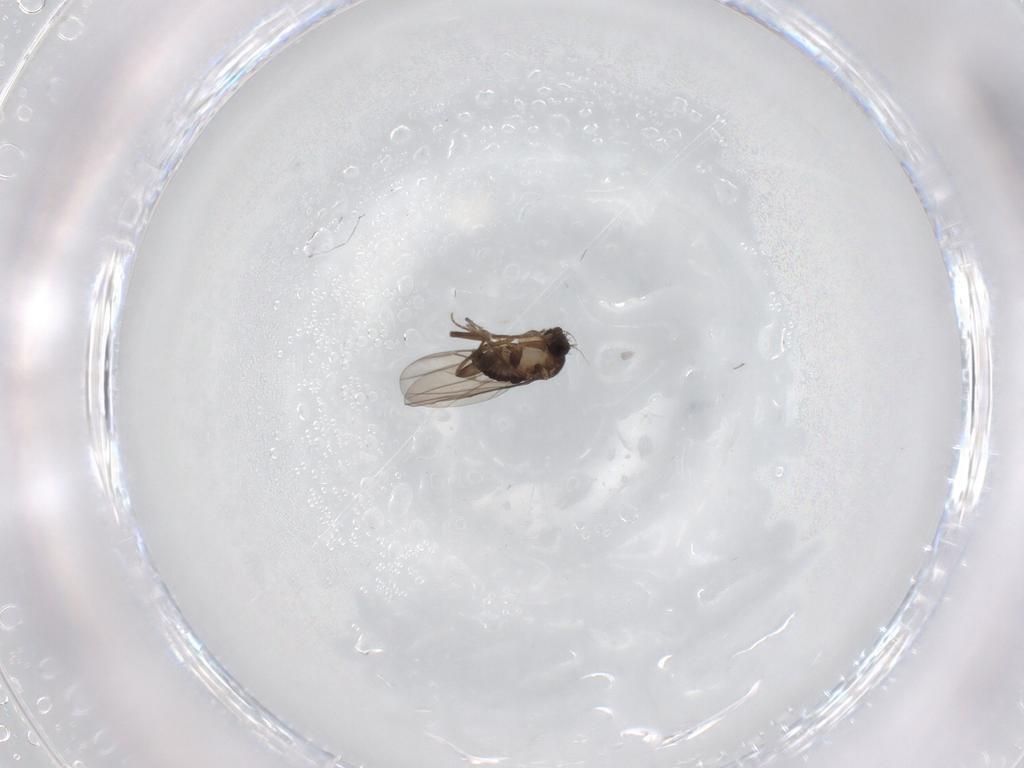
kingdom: Animalia
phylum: Arthropoda
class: Insecta
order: Diptera
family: Phoridae
